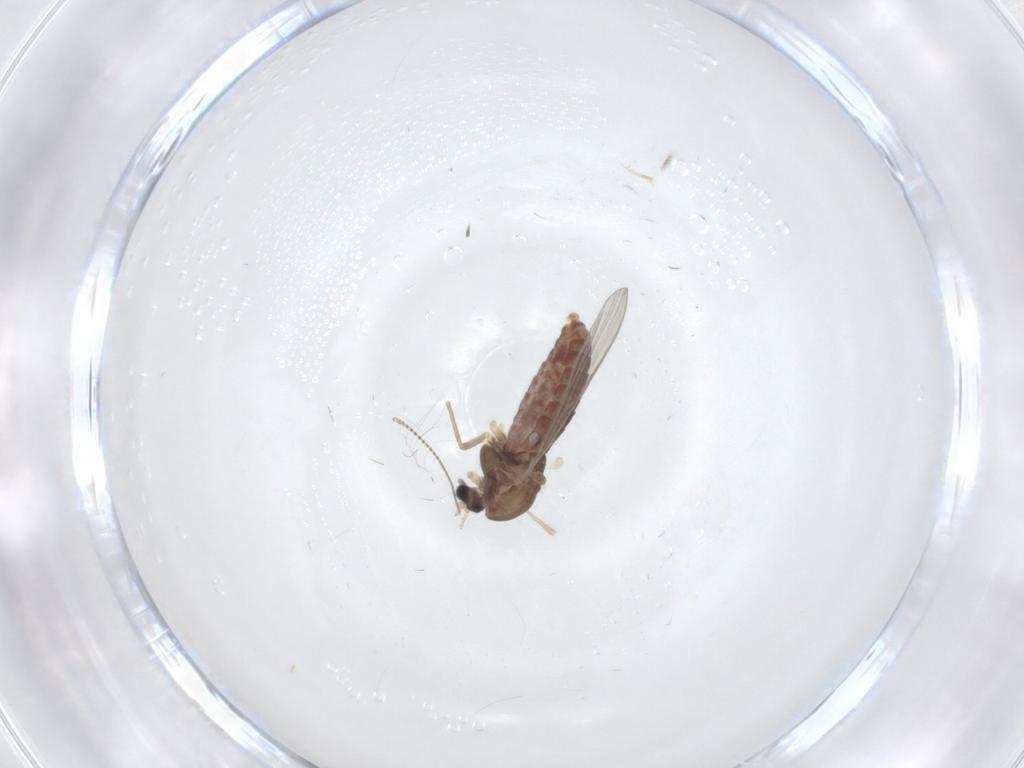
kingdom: Animalia
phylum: Arthropoda
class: Insecta
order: Diptera
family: Chironomidae
